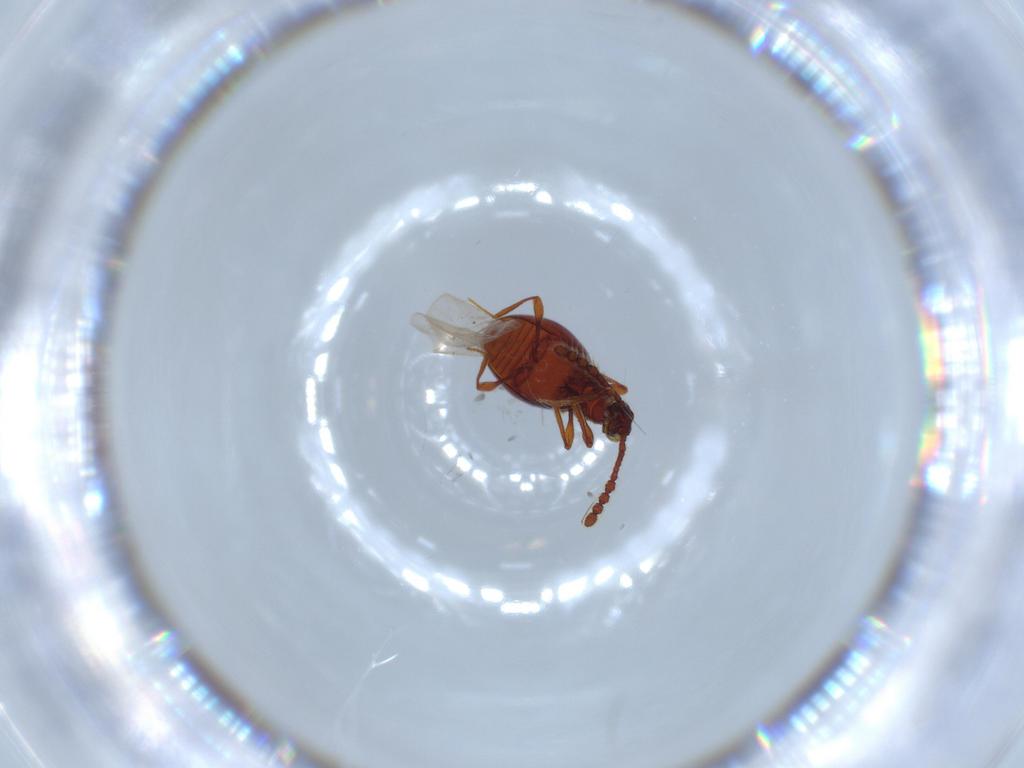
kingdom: Animalia
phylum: Arthropoda
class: Insecta
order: Coleoptera
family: Staphylinidae
